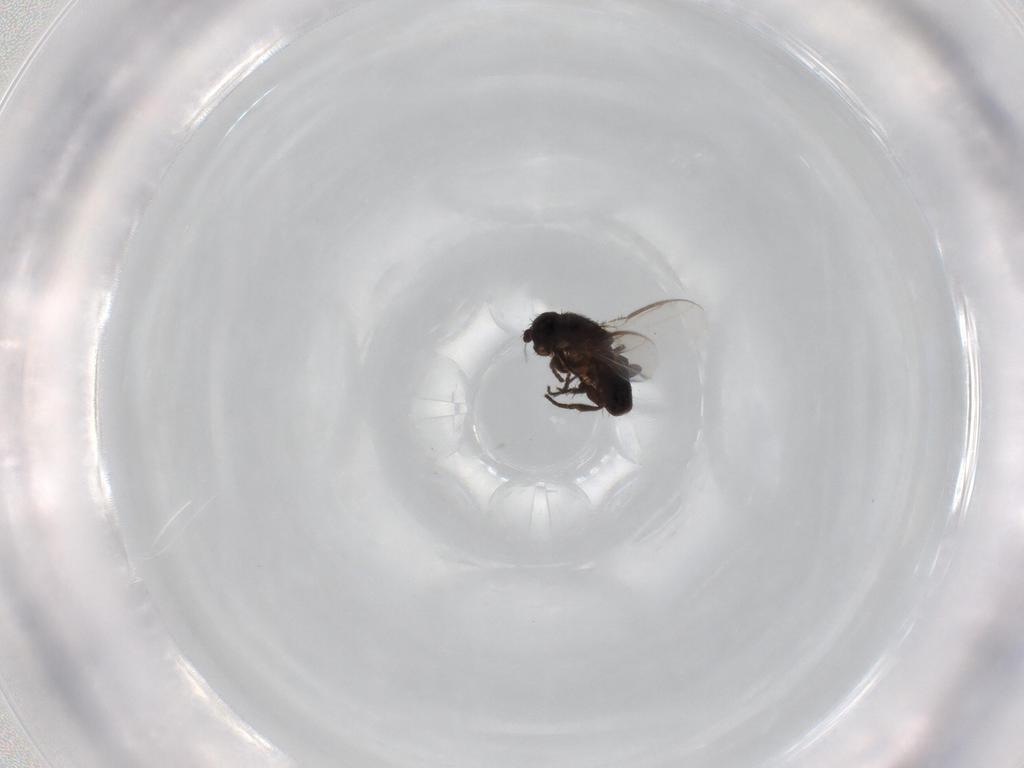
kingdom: Animalia
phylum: Arthropoda
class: Insecta
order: Diptera
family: Sphaeroceridae
